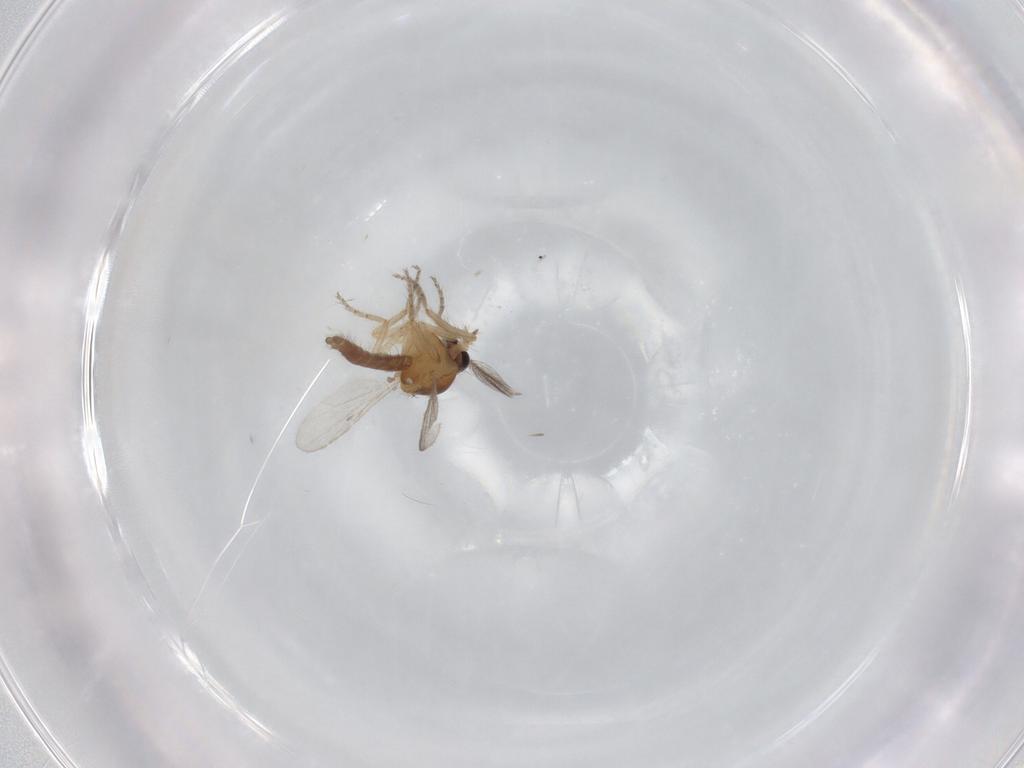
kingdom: Animalia
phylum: Arthropoda
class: Insecta
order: Diptera
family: Ceratopogonidae
